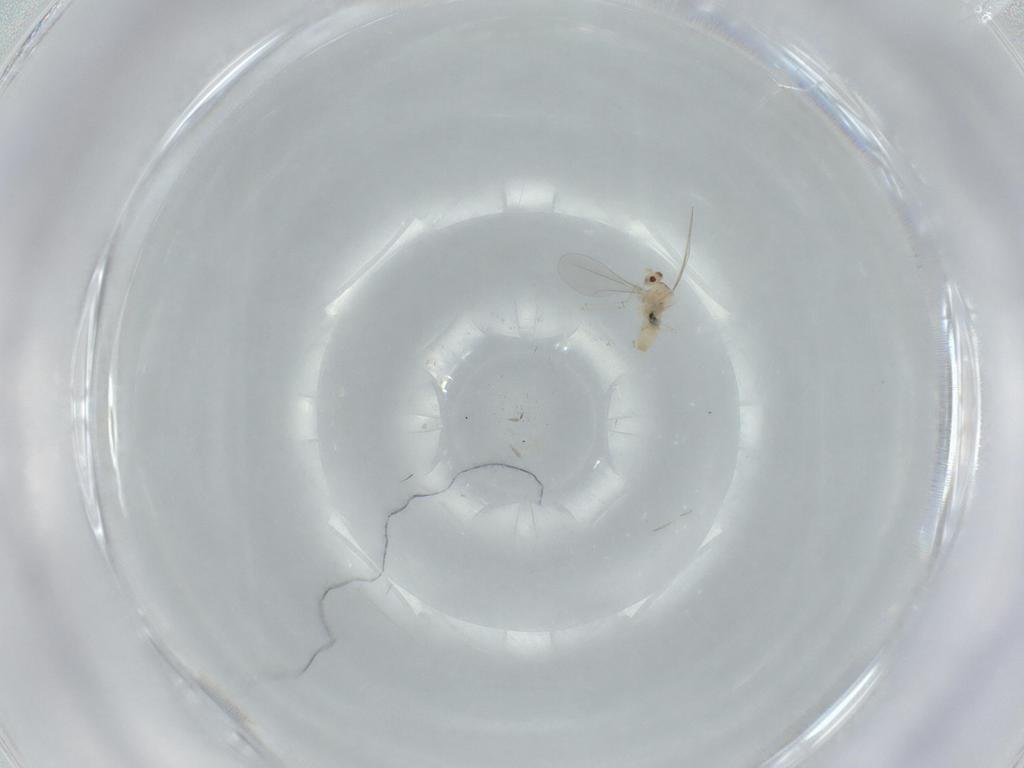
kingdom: Animalia
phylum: Arthropoda
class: Insecta
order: Diptera
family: Cecidomyiidae
